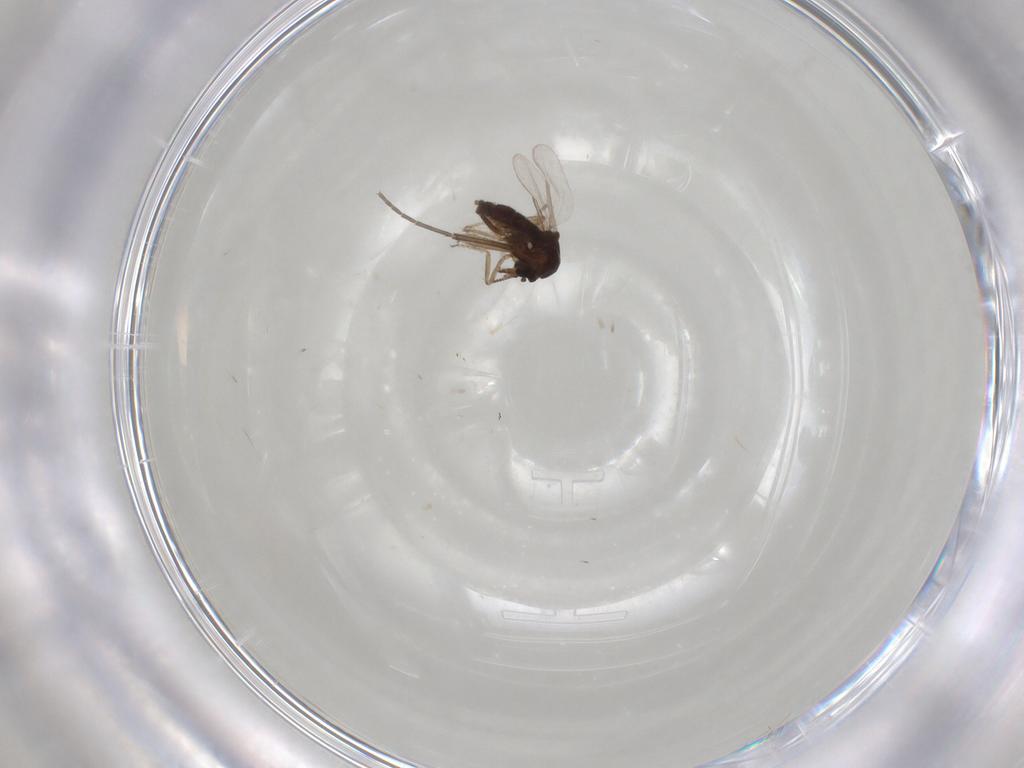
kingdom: Animalia
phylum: Arthropoda
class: Insecta
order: Diptera
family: Ceratopogonidae
